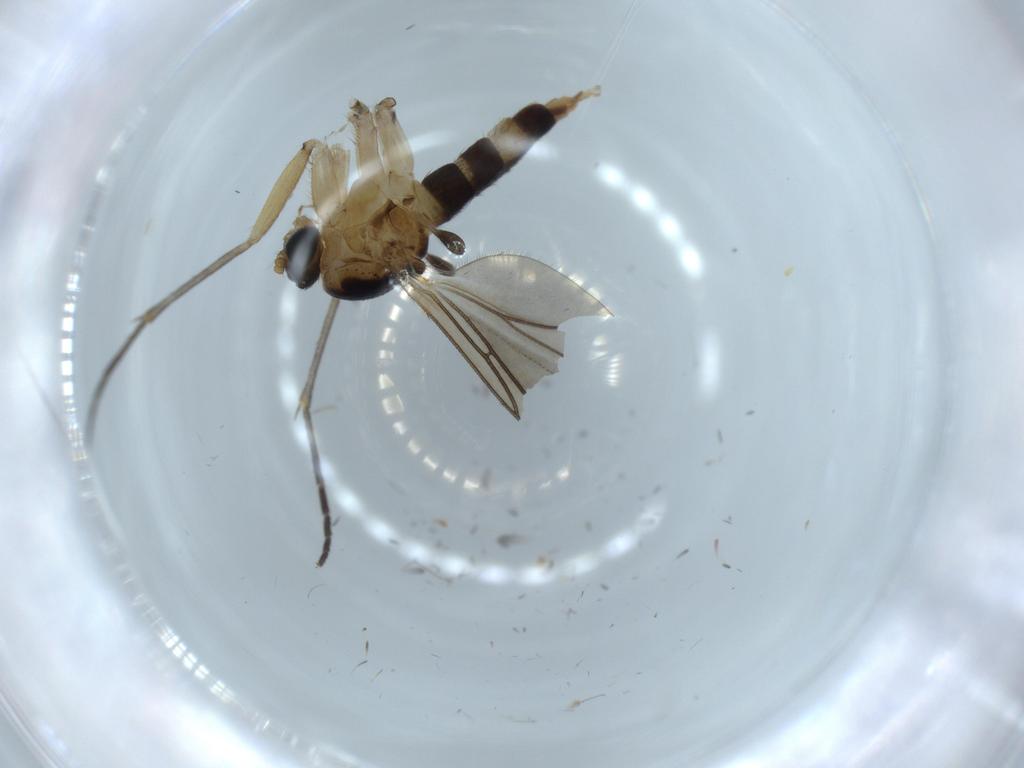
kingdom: Animalia
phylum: Arthropoda
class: Insecta
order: Diptera
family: Sciaridae
